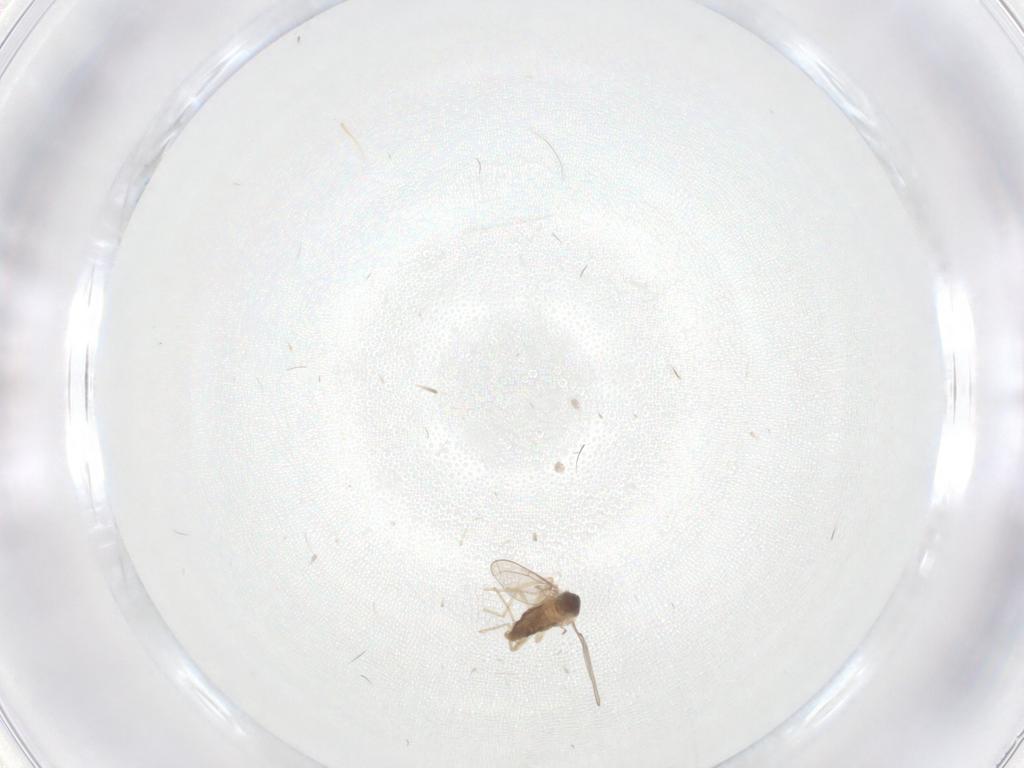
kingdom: Animalia
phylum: Arthropoda
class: Insecta
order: Diptera
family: Cecidomyiidae
